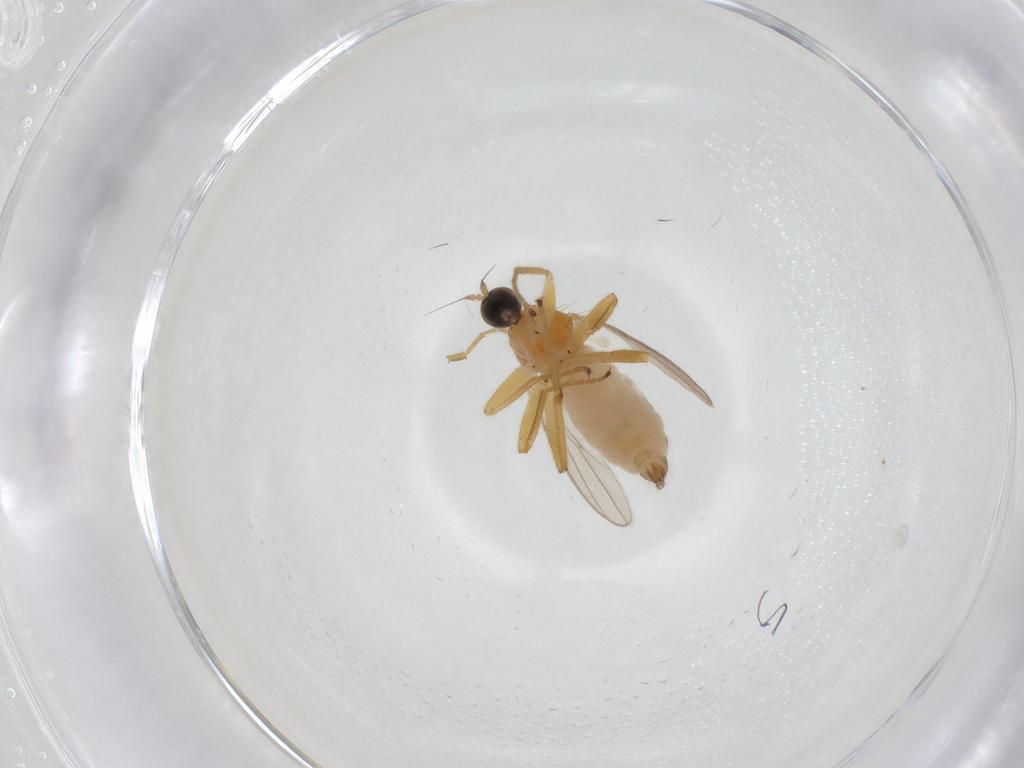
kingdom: Animalia
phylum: Arthropoda
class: Insecta
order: Diptera
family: Hybotidae
